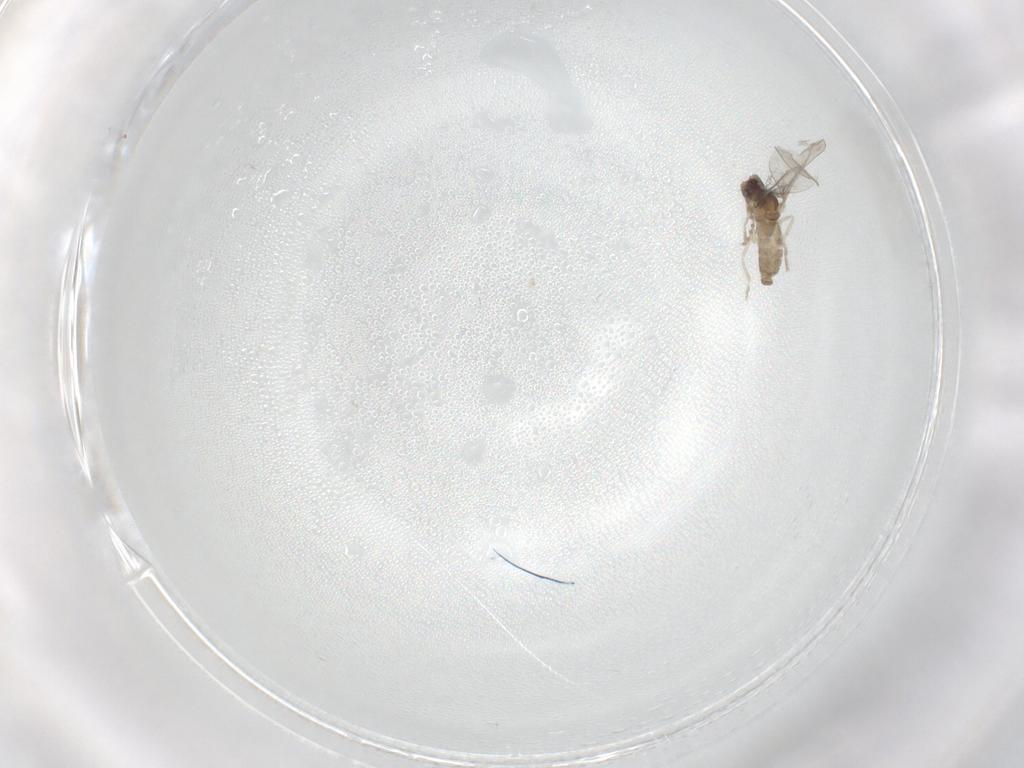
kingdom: Animalia
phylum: Arthropoda
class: Insecta
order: Diptera
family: Cecidomyiidae
